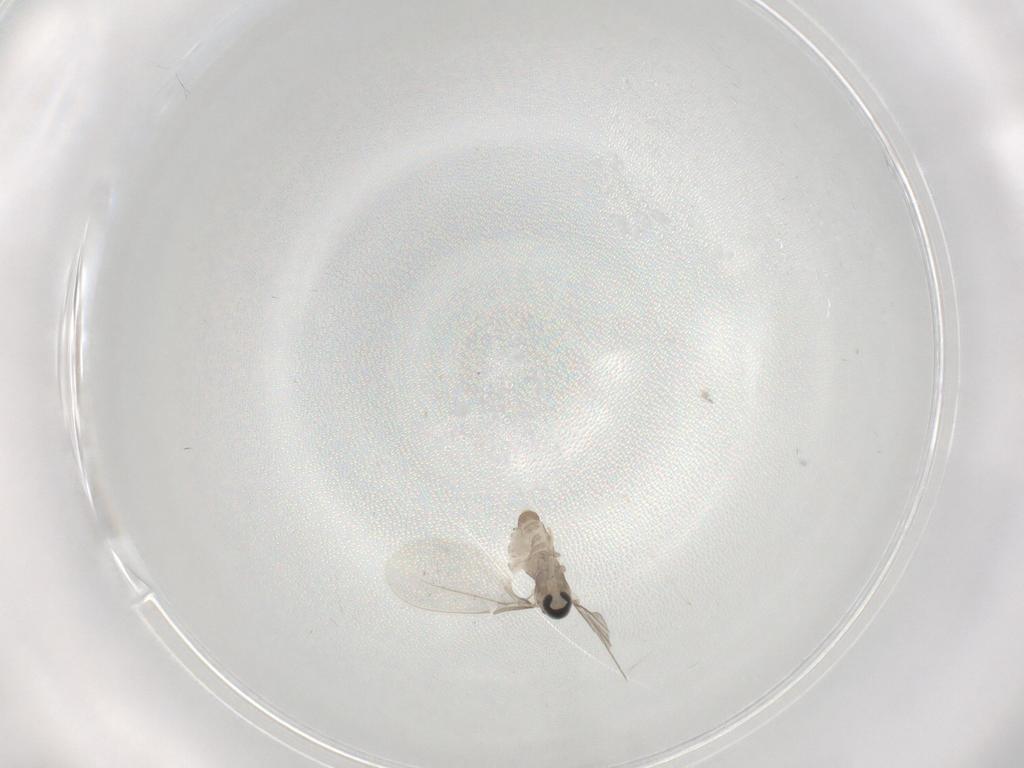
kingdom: Animalia
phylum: Arthropoda
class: Insecta
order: Diptera
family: Cecidomyiidae
